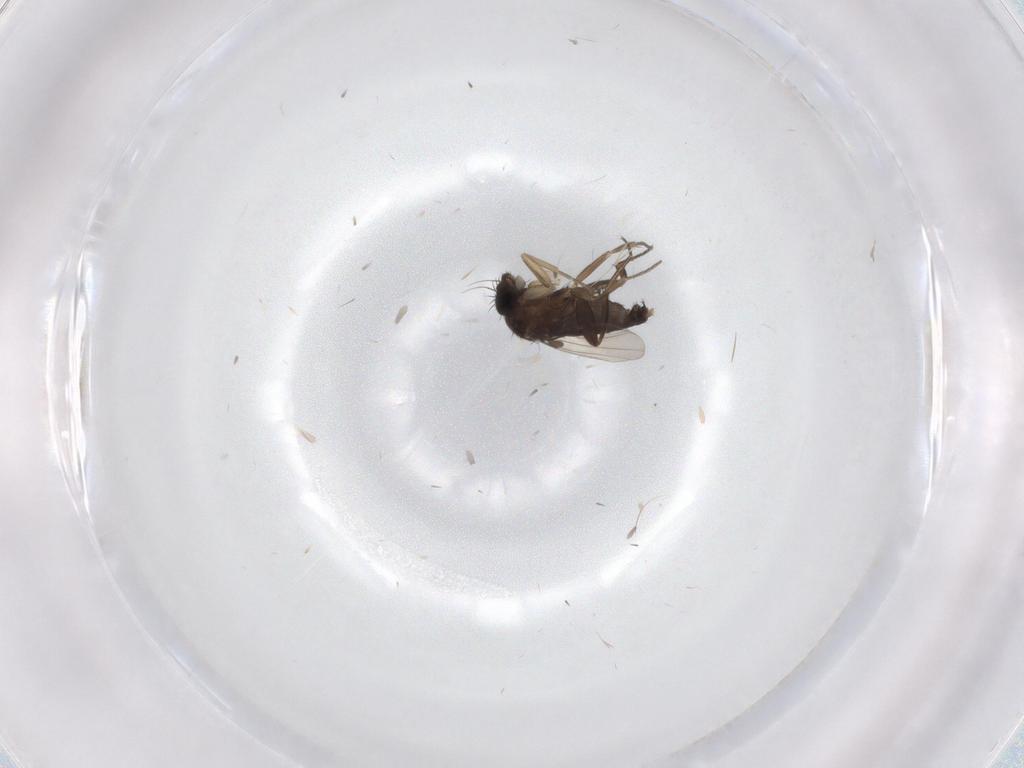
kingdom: Animalia
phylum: Arthropoda
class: Insecta
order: Diptera
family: Phoridae
